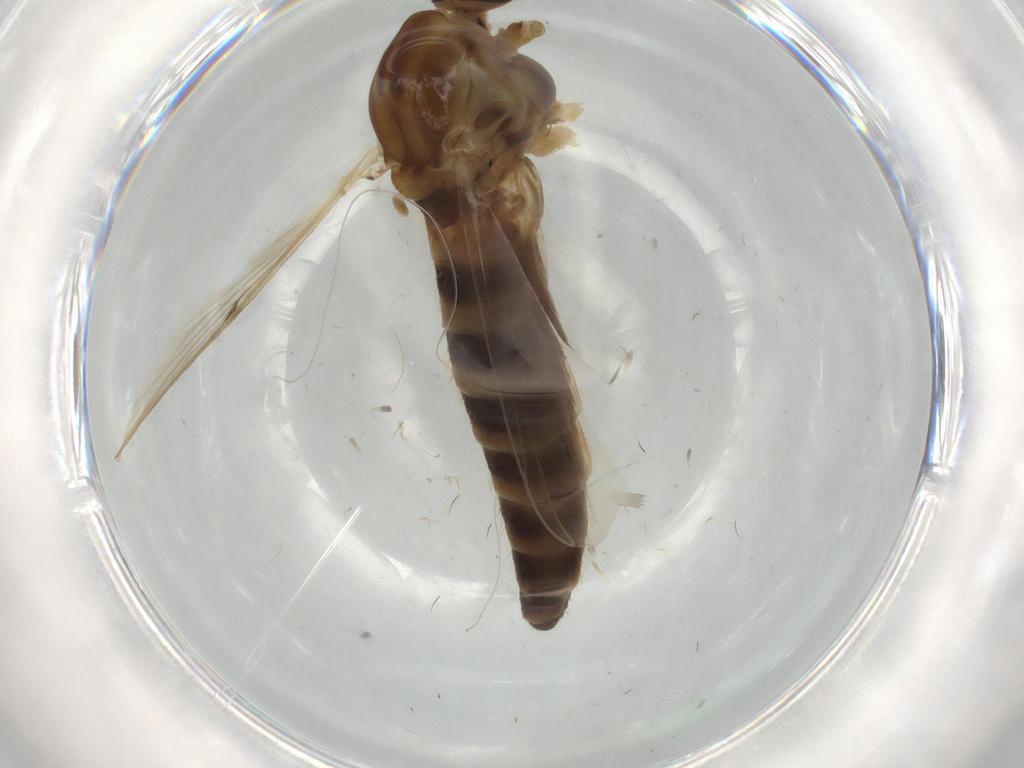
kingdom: Animalia
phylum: Arthropoda
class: Insecta
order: Diptera
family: Chironomidae
